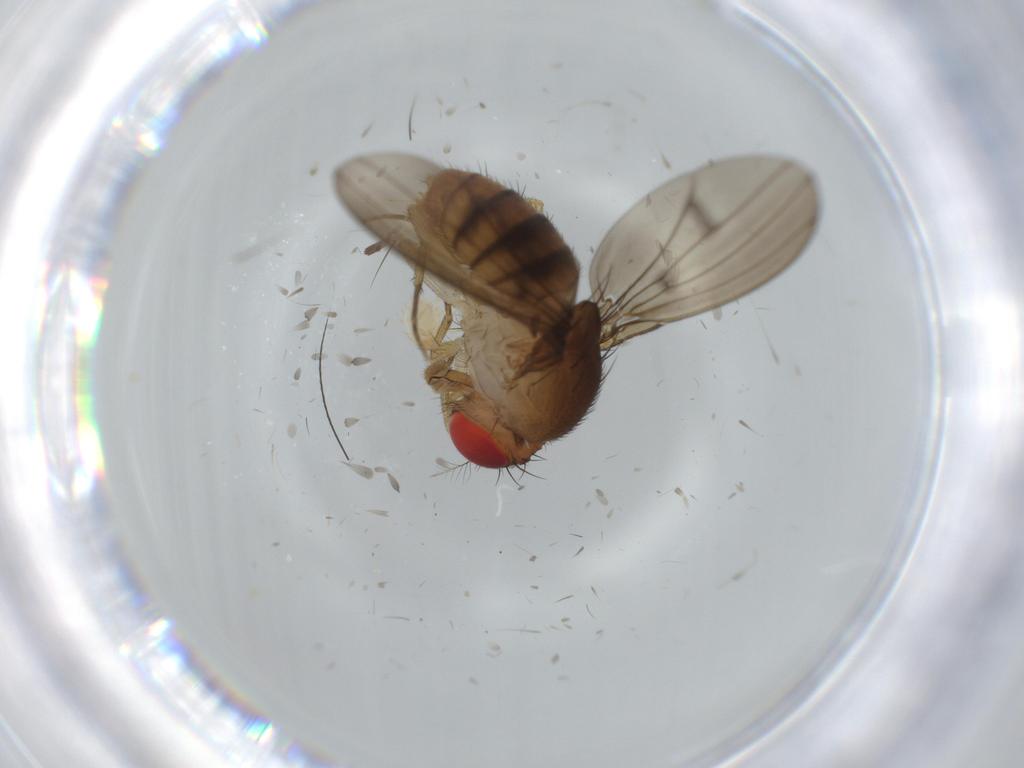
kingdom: Animalia
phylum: Arthropoda
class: Insecta
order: Diptera
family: Drosophilidae
